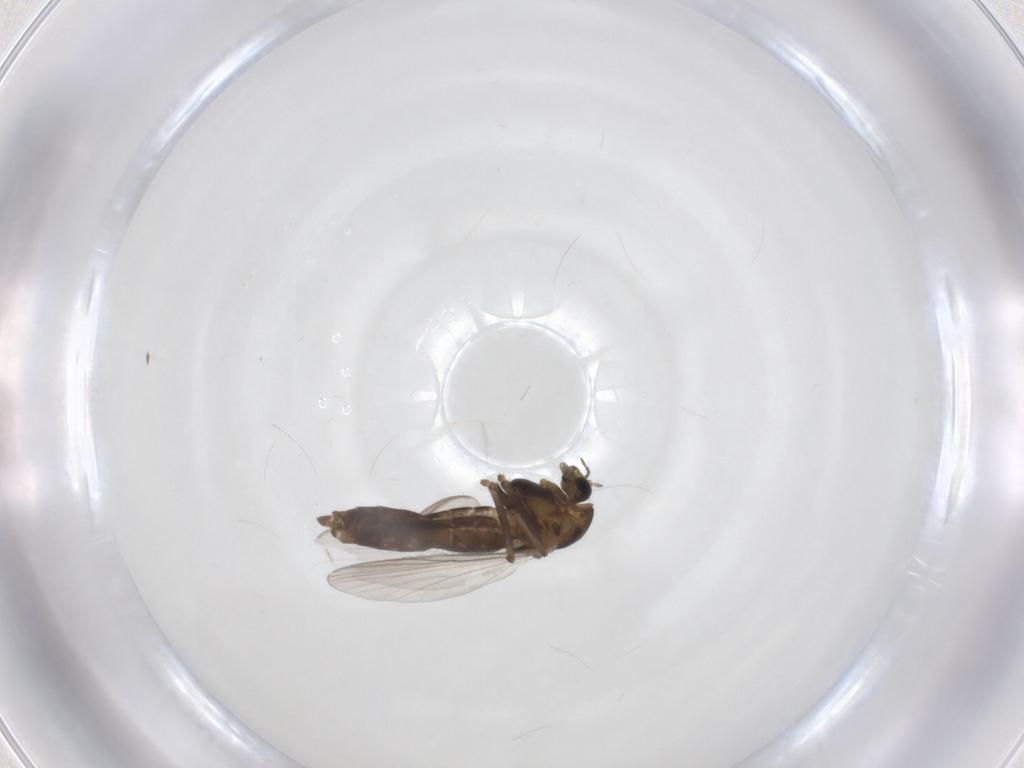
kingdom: Animalia
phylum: Arthropoda
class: Insecta
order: Diptera
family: Chironomidae
